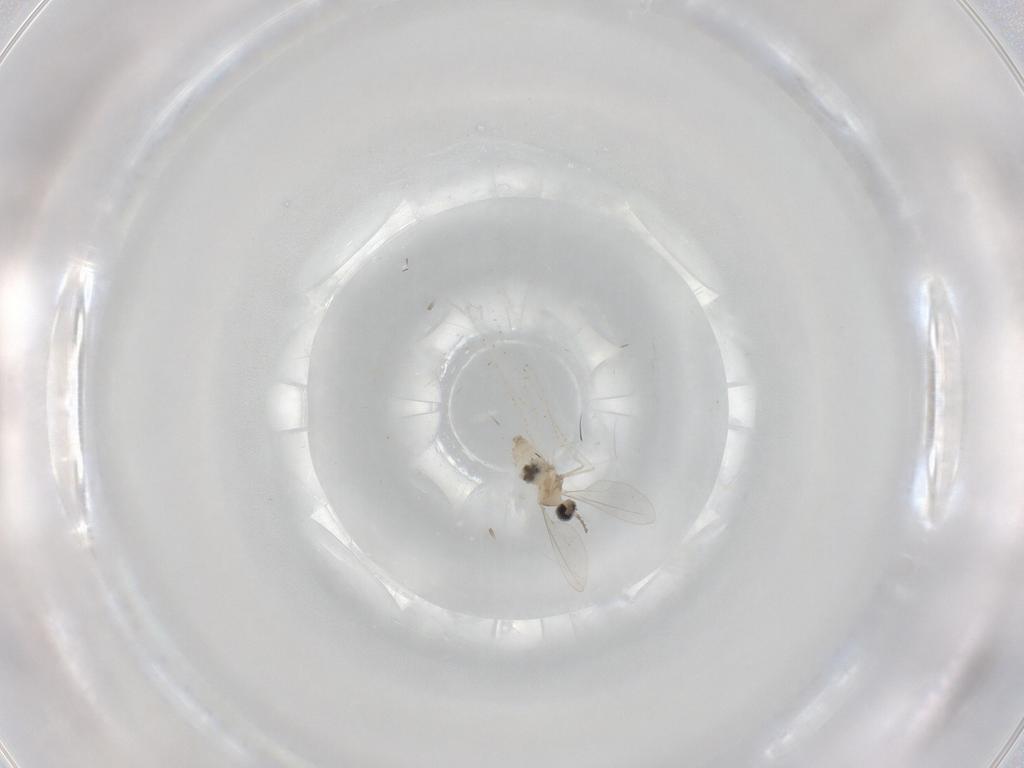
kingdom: Animalia
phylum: Arthropoda
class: Insecta
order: Diptera
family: Cecidomyiidae
